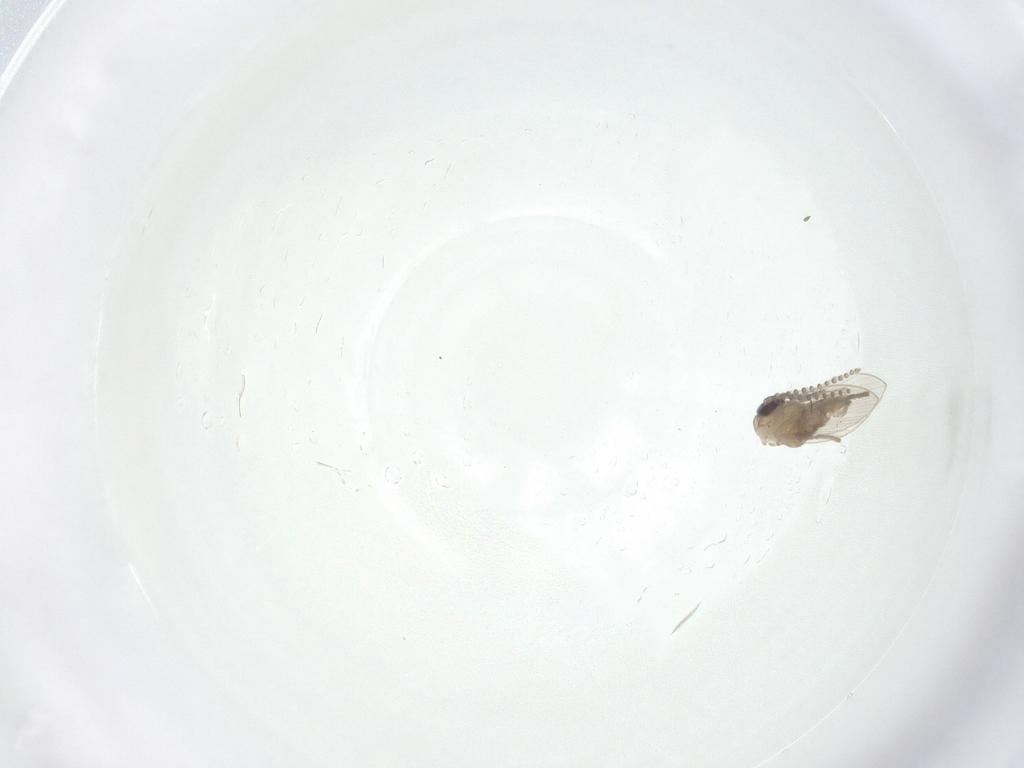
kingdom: Animalia
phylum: Arthropoda
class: Insecta
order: Diptera
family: Psychodidae
